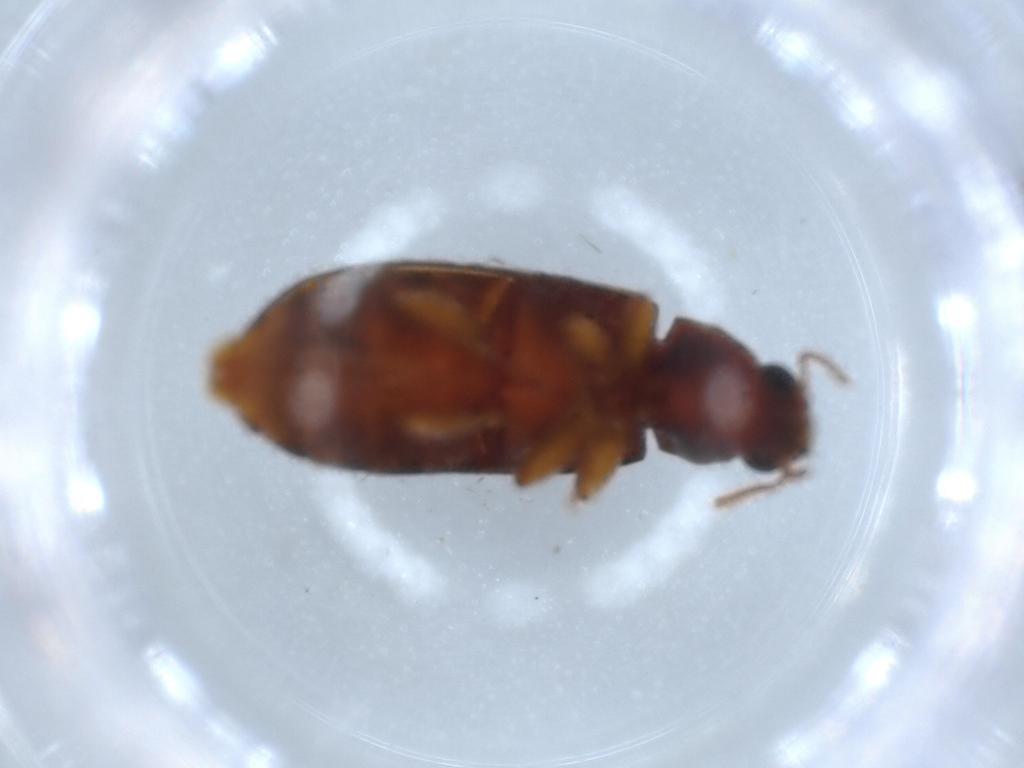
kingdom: Animalia
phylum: Arthropoda
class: Insecta
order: Coleoptera
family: Mycteridae
